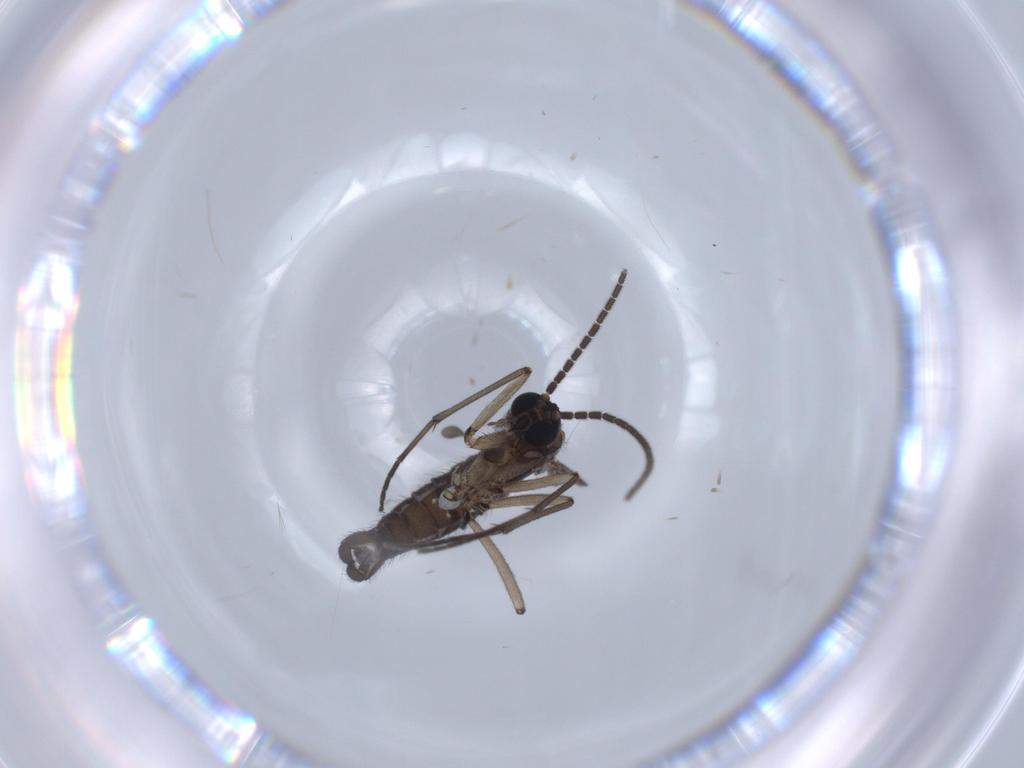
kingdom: Animalia
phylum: Arthropoda
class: Insecta
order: Diptera
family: Sciaridae
